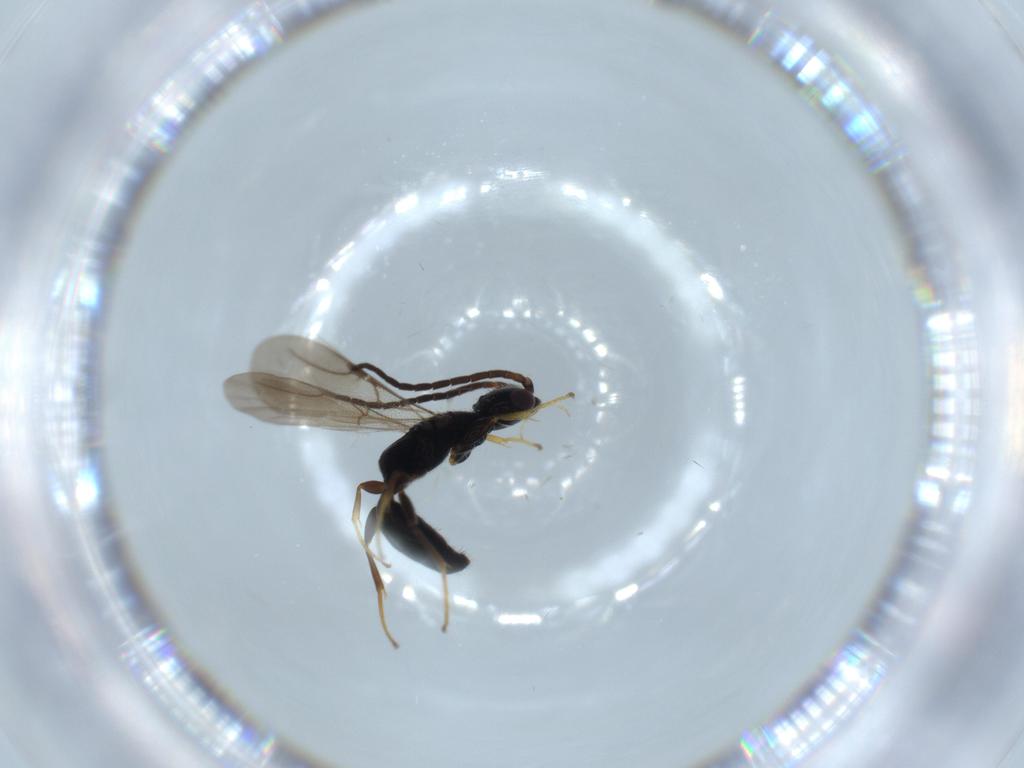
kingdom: Animalia
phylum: Arthropoda
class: Insecta
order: Hymenoptera
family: Bethylidae
